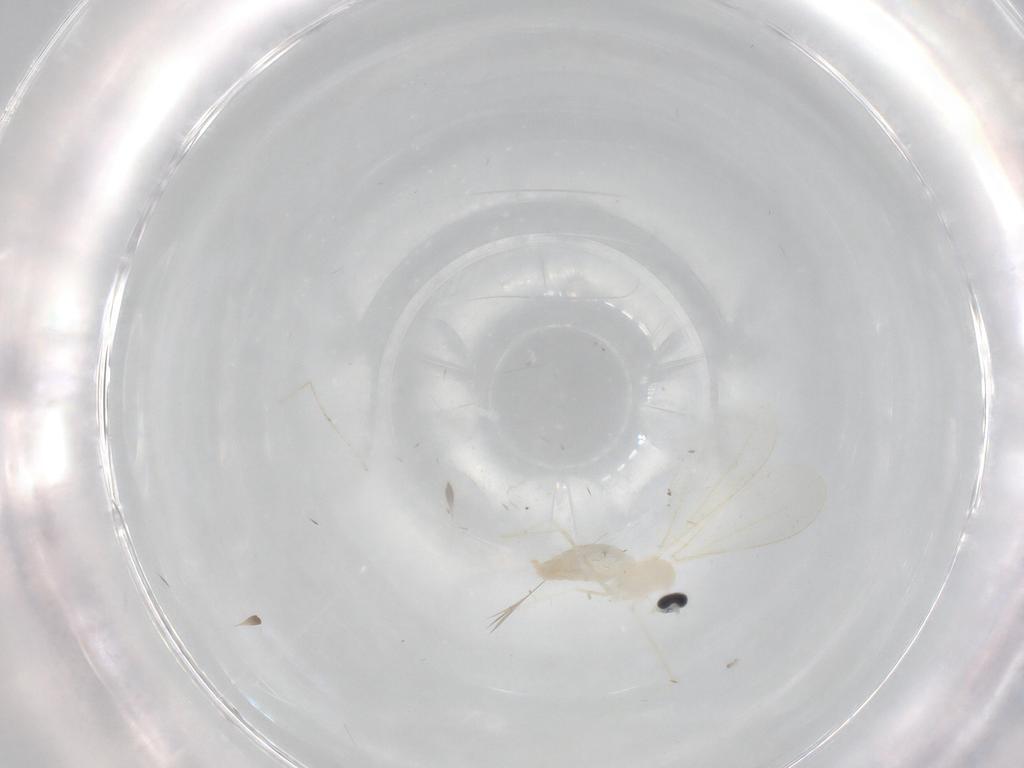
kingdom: Animalia
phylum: Arthropoda
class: Insecta
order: Diptera
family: Cecidomyiidae
